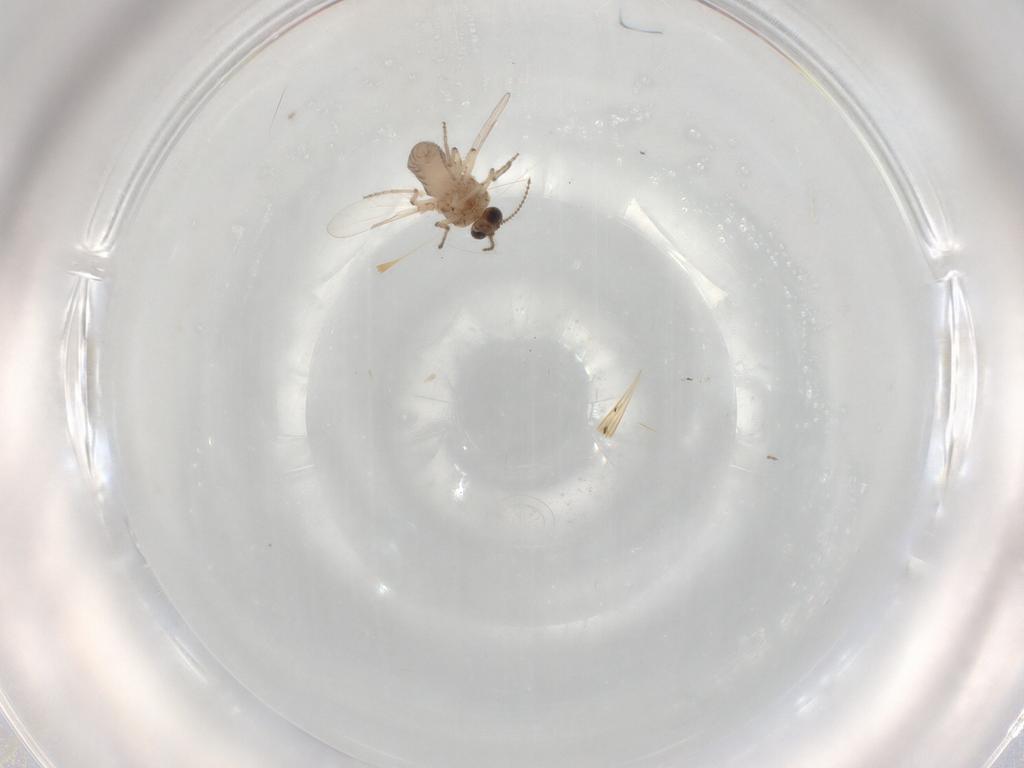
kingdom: Animalia
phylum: Arthropoda
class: Insecta
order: Diptera
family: Ceratopogonidae
